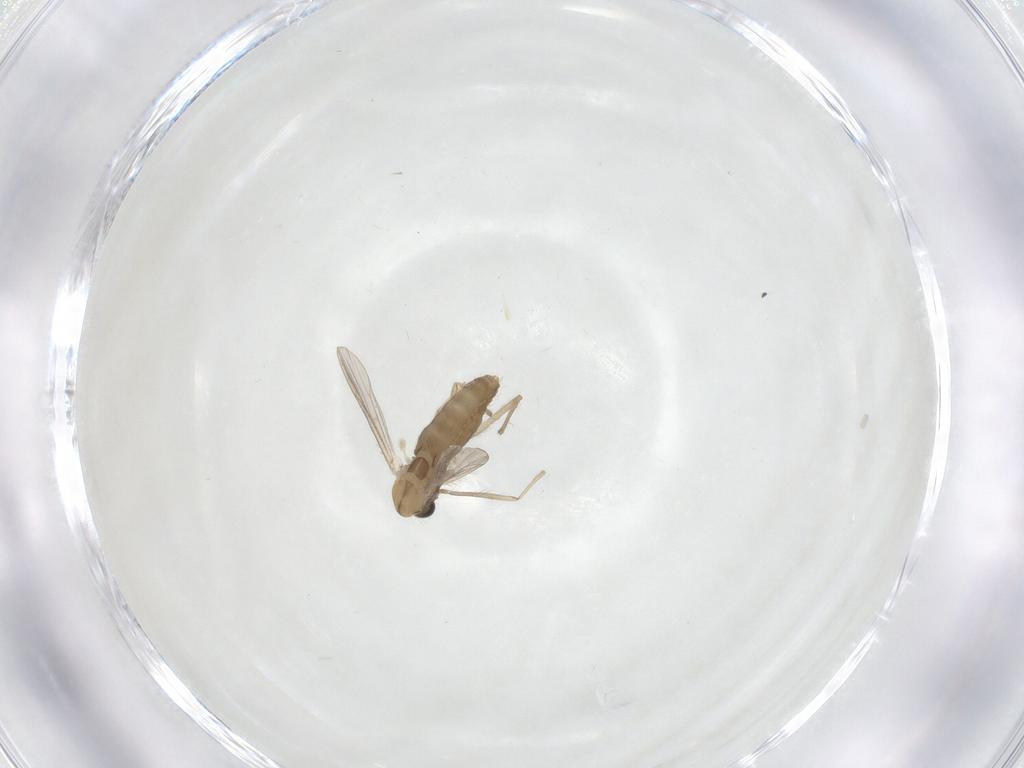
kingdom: Animalia
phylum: Arthropoda
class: Insecta
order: Diptera
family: Chironomidae
